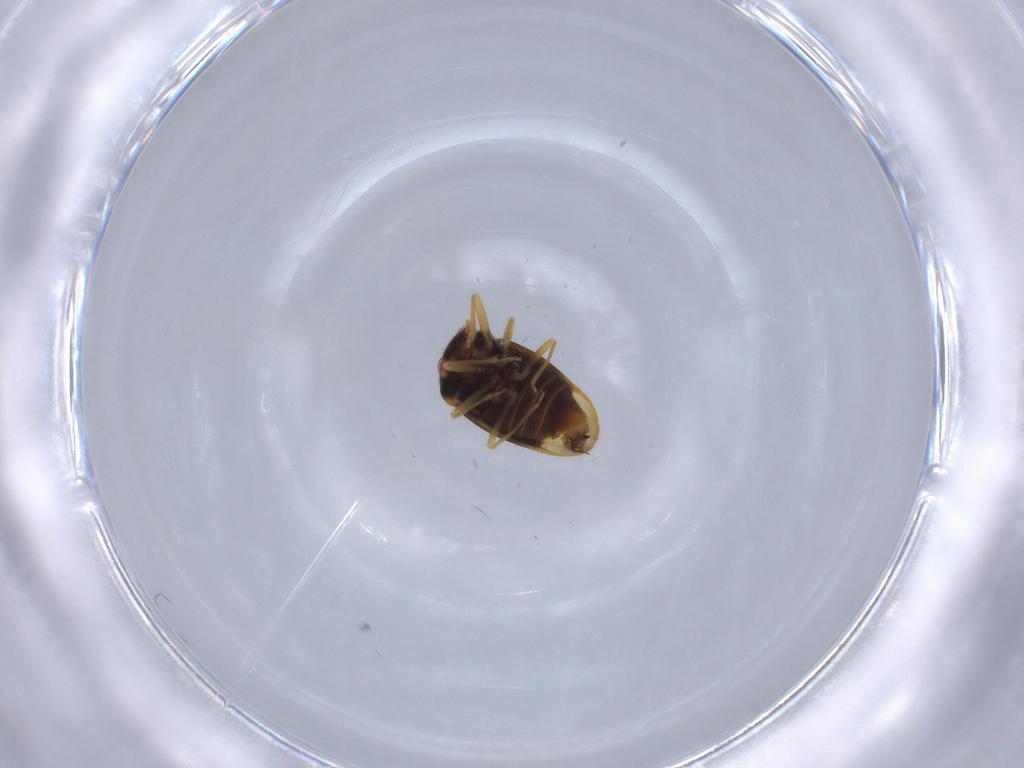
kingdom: Animalia
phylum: Arthropoda
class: Insecta
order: Hemiptera
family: Schizopteridae
